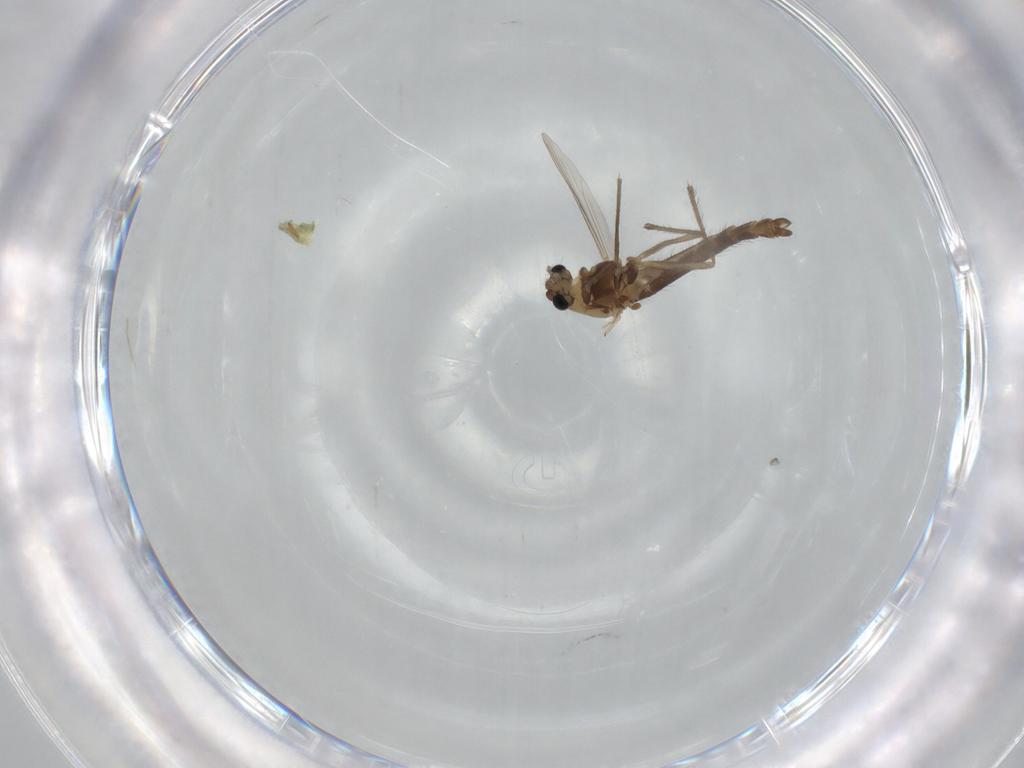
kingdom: Animalia
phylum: Arthropoda
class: Insecta
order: Diptera
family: Chironomidae
